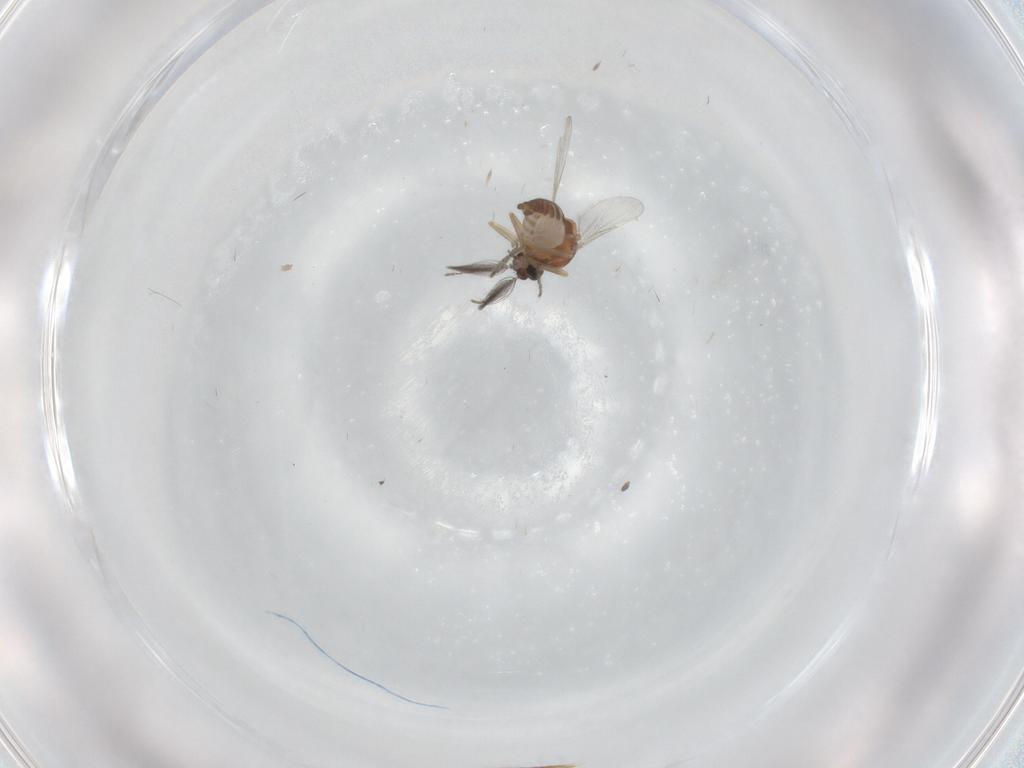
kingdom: Animalia
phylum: Arthropoda
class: Insecta
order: Diptera
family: Ceratopogonidae
